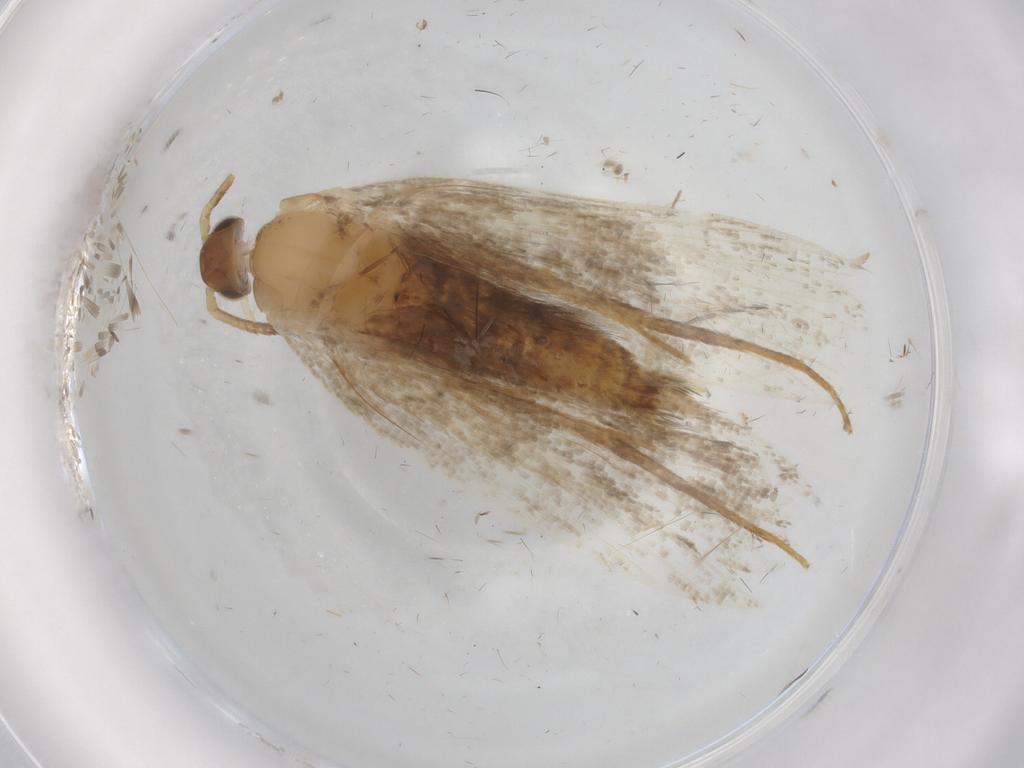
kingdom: Animalia
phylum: Arthropoda
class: Insecta
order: Lepidoptera
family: Oecophoridae
